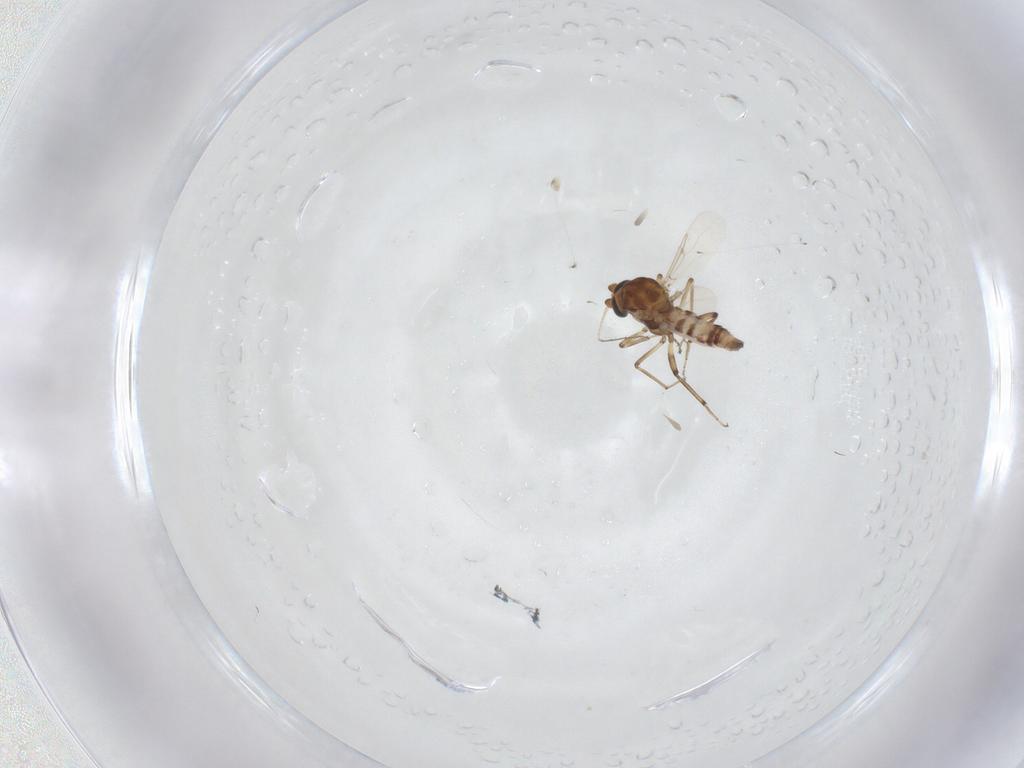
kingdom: Animalia
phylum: Arthropoda
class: Insecta
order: Diptera
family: Ceratopogonidae
